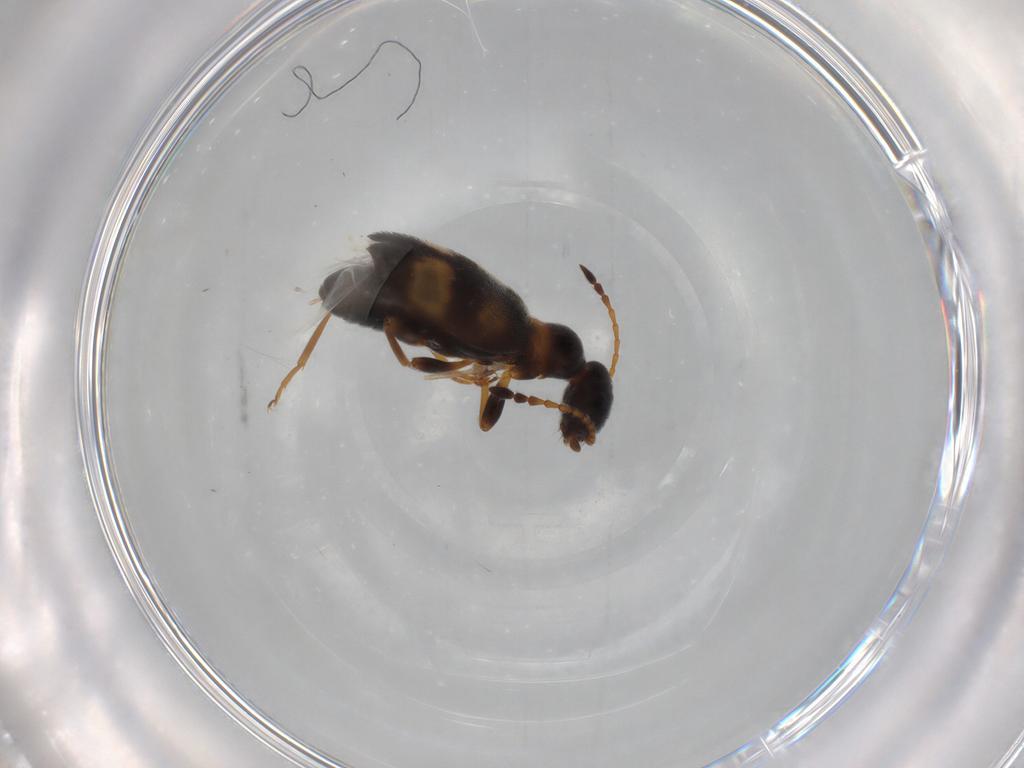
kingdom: Animalia
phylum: Arthropoda
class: Insecta
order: Coleoptera
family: Anthicidae
